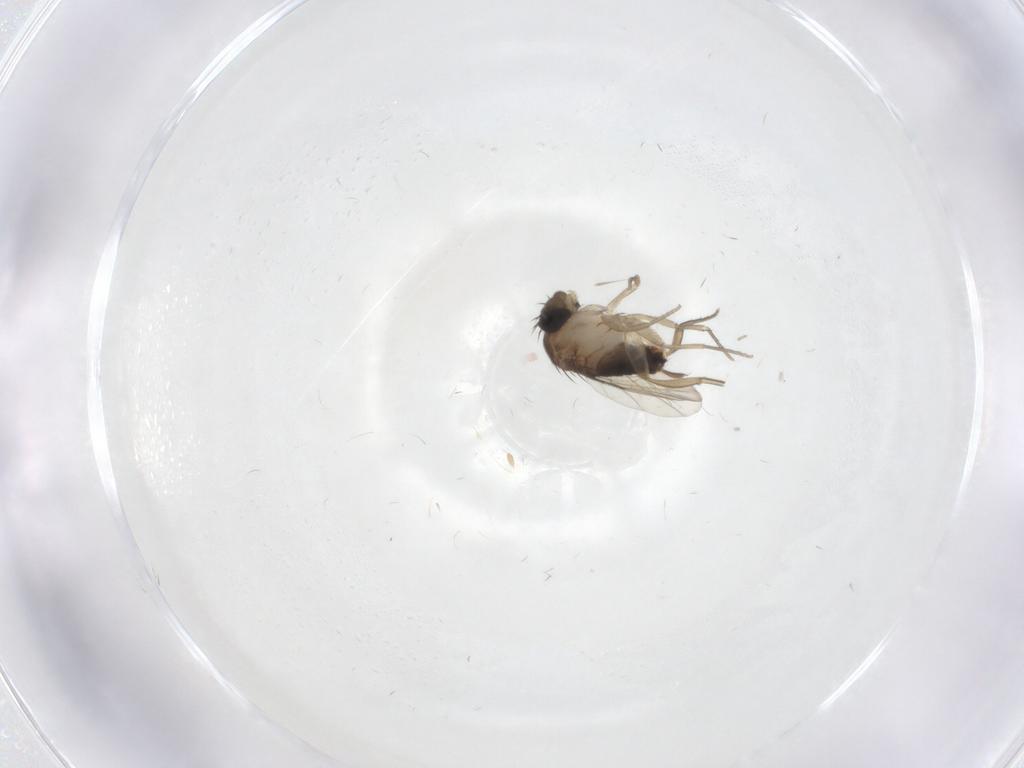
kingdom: Animalia
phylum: Arthropoda
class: Insecta
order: Diptera
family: Phoridae
